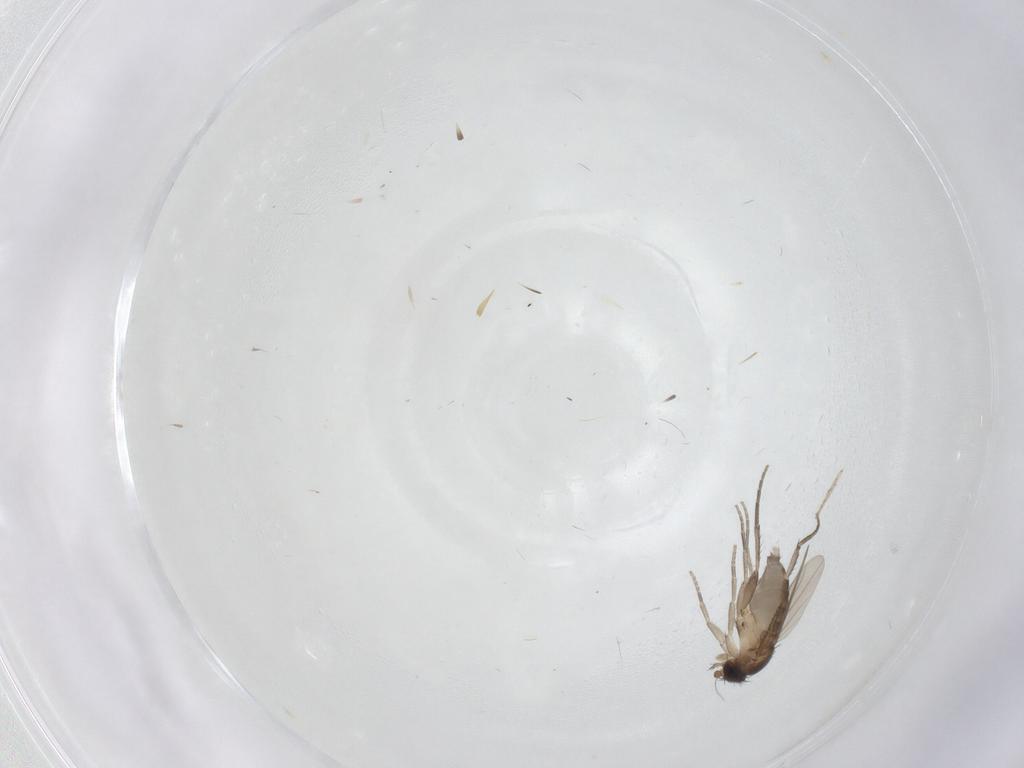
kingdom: Animalia
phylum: Arthropoda
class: Insecta
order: Diptera
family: Phoridae
